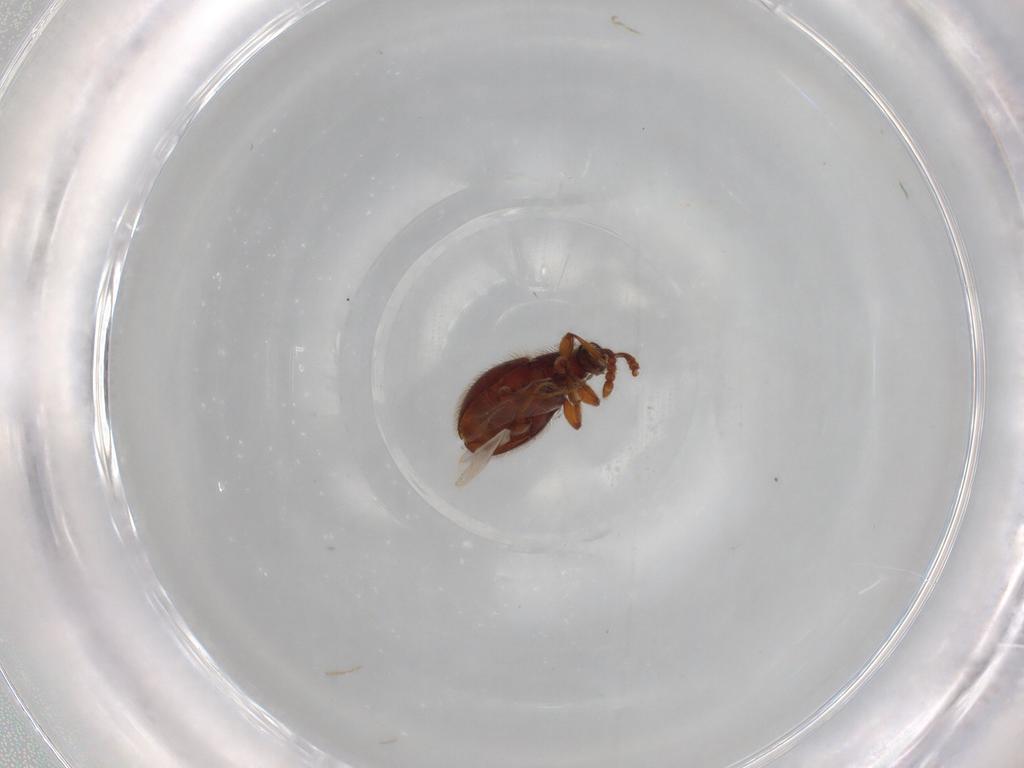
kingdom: Animalia
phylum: Arthropoda
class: Insecta
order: Coleoptera
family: Staphylinidae
